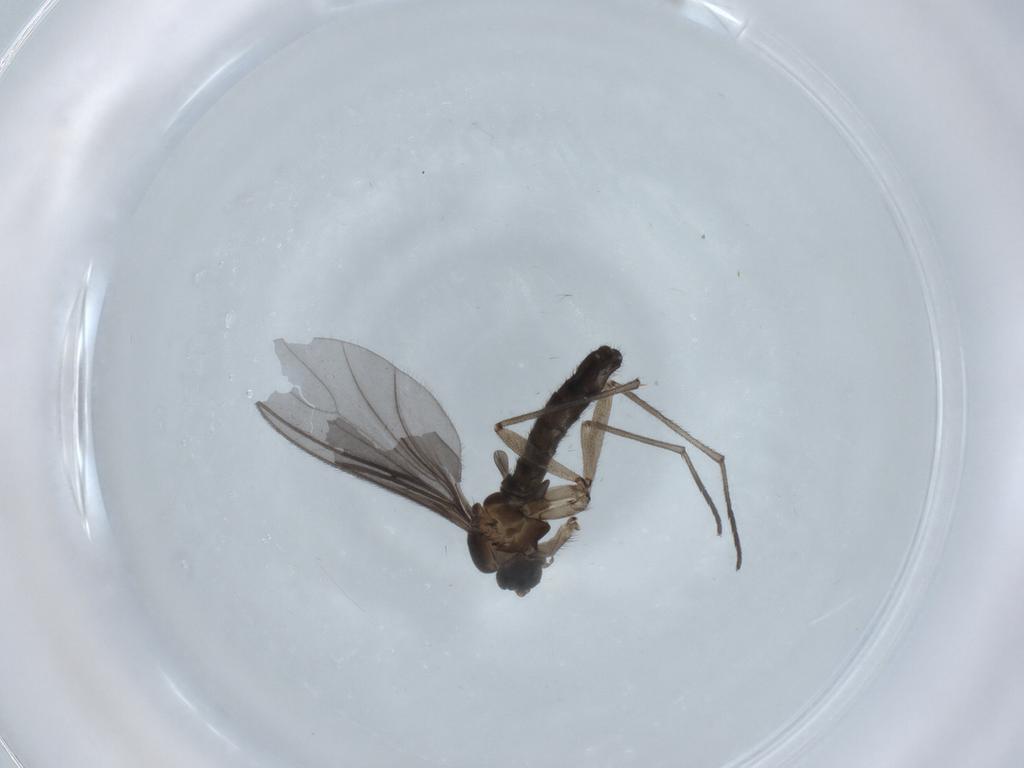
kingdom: Animalia
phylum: Arthropoda
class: Insecta
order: Diptera
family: Sciaridae
